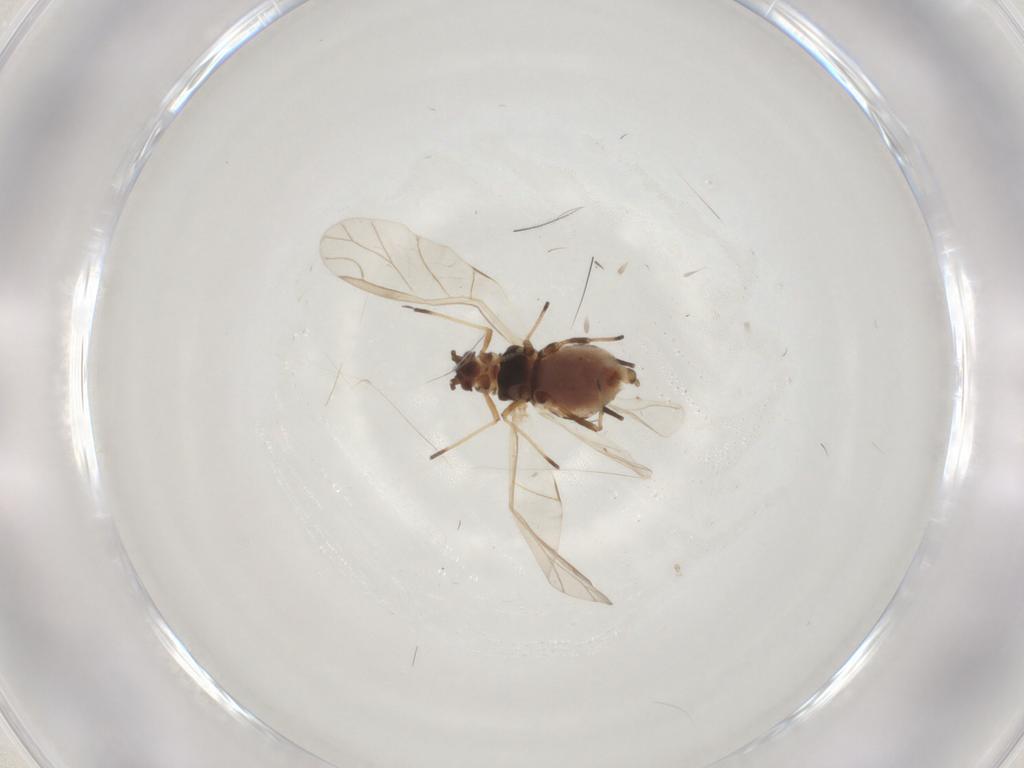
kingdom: Animalia
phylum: Arthropoda
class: Insecta
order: Hemiptera
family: Aphididae
